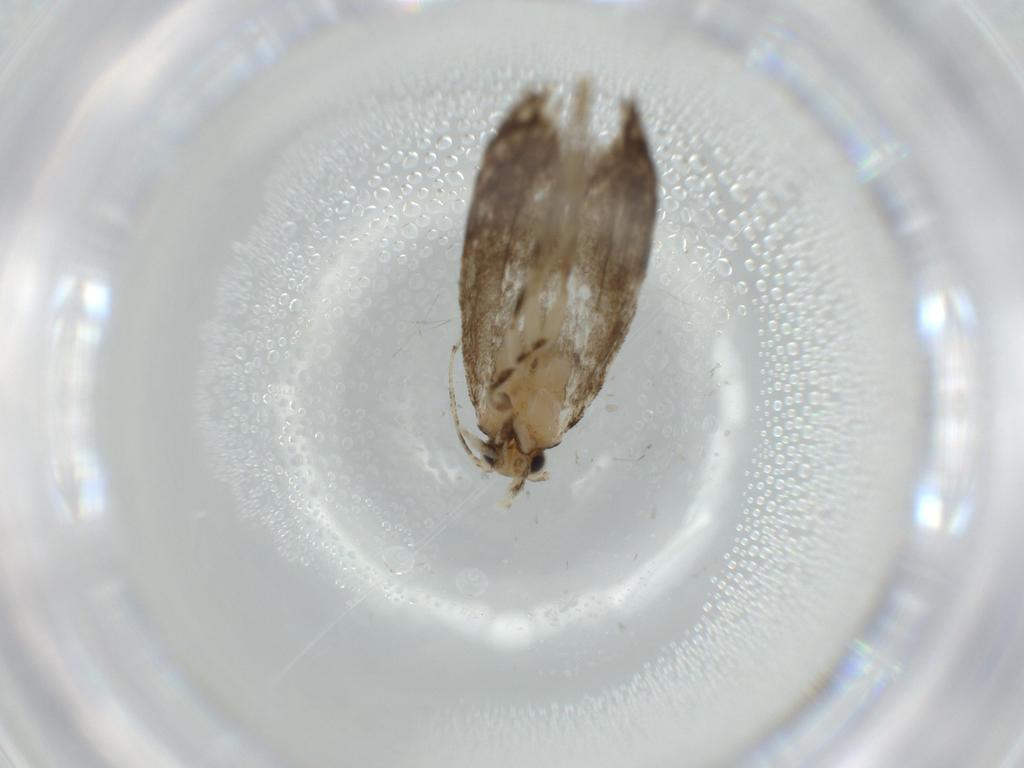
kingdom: Animalia
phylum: Arthropoda
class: Insecta
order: Lepidoptera
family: Tineidae
